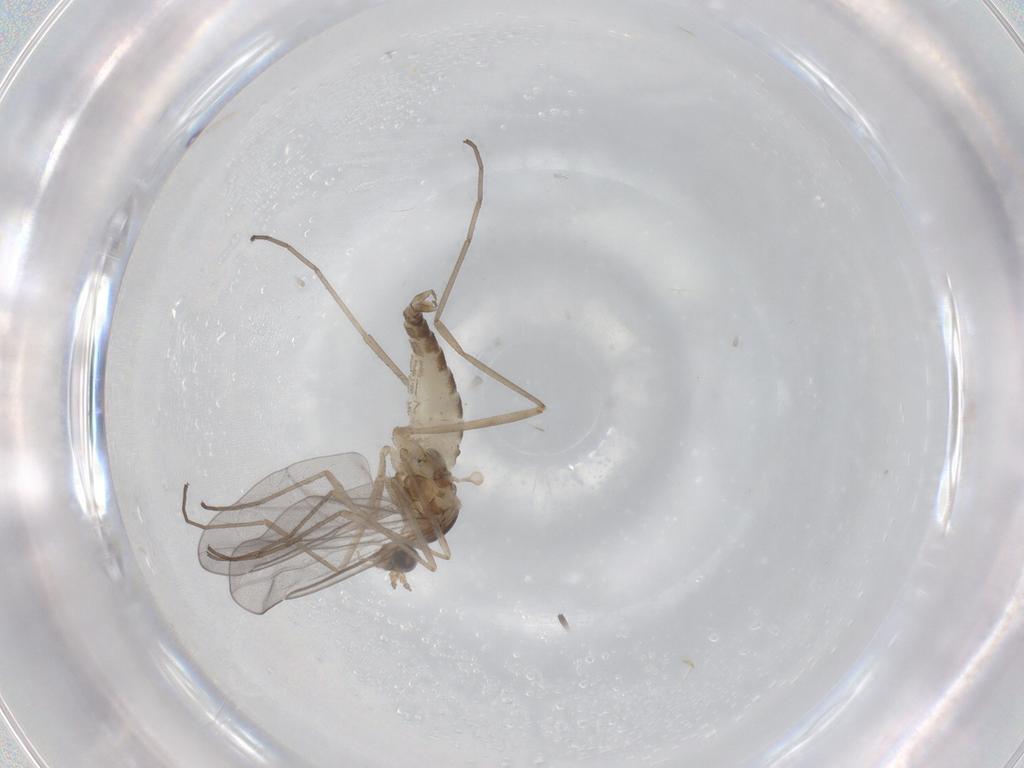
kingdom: Animalia
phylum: Arthropoda
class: Insecta
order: Diptera
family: Cecidomyiidae
